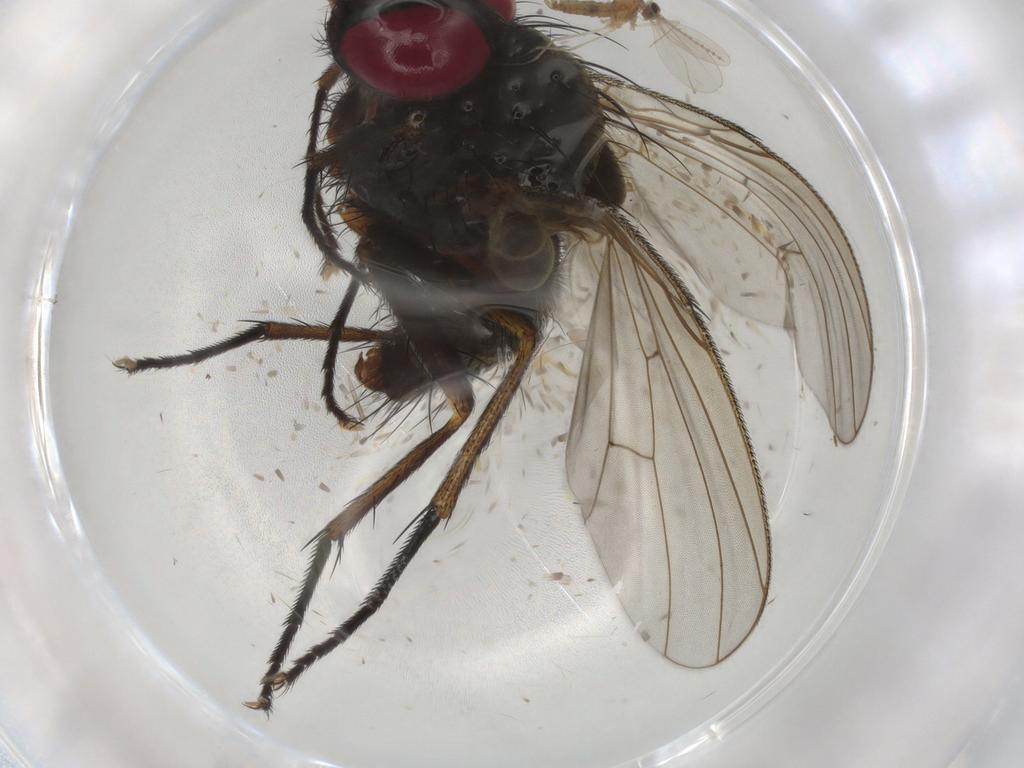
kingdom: Animalia
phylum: Arthropoda
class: Insecta
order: Diptera
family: Muscidae
